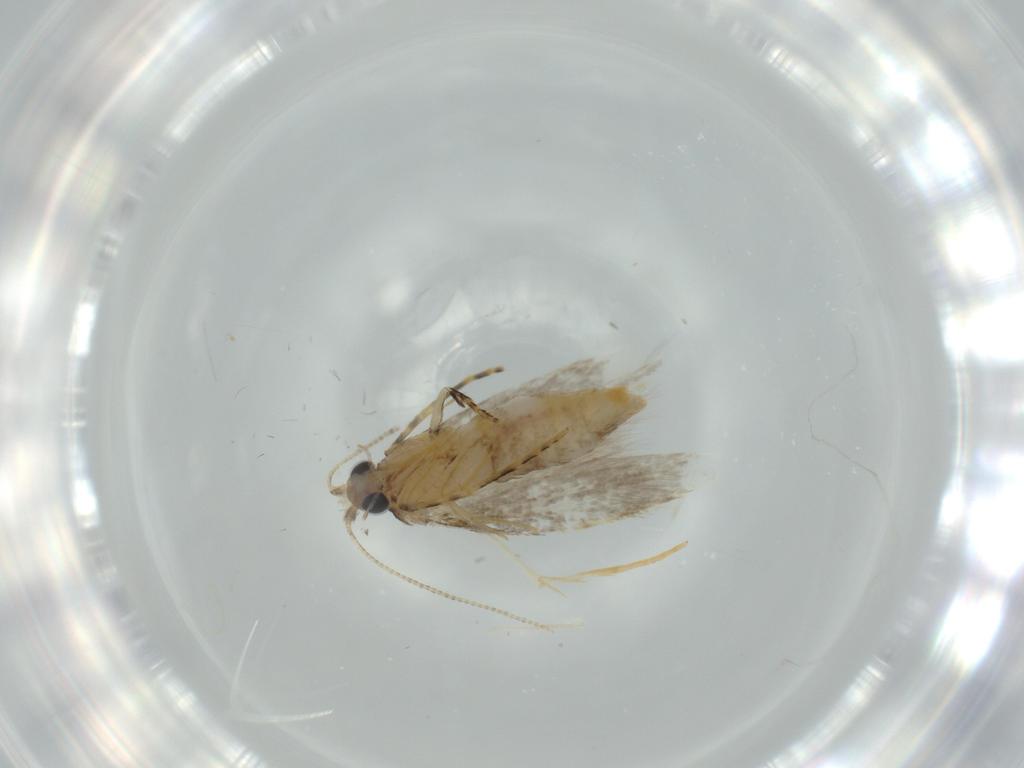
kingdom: Animalia
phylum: Arthropoda
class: Insecta
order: Lepidoptera
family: Tineidae
